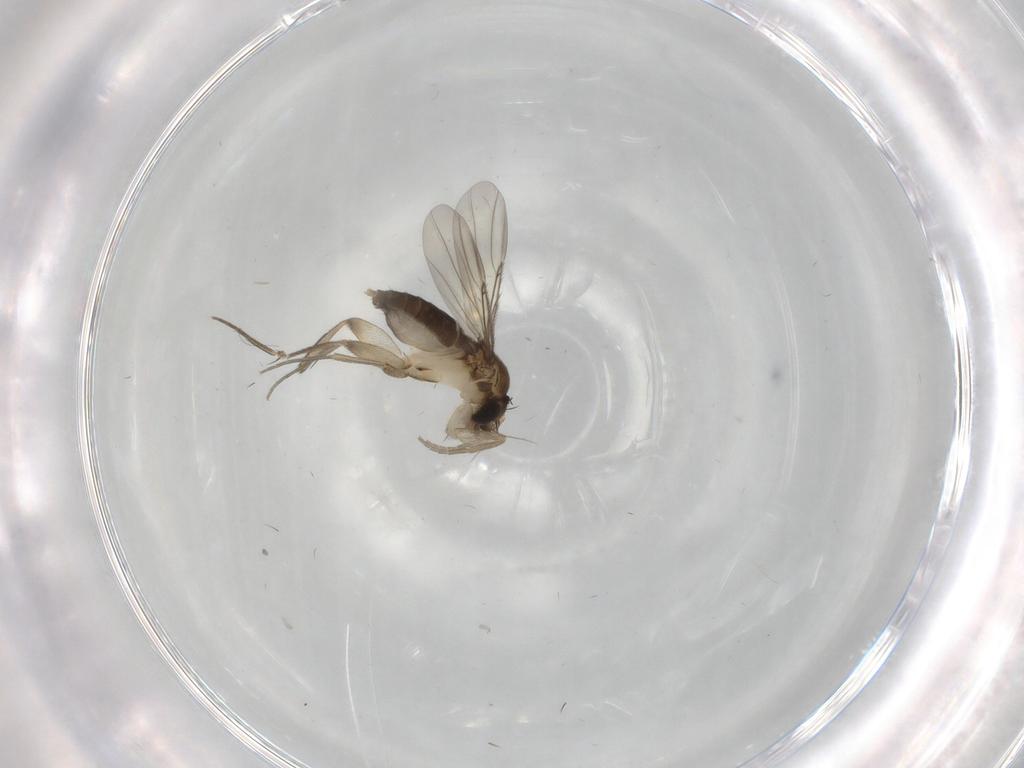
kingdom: Animalia
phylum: Arthropoda
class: Insecta
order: Diptera
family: Phoridae
